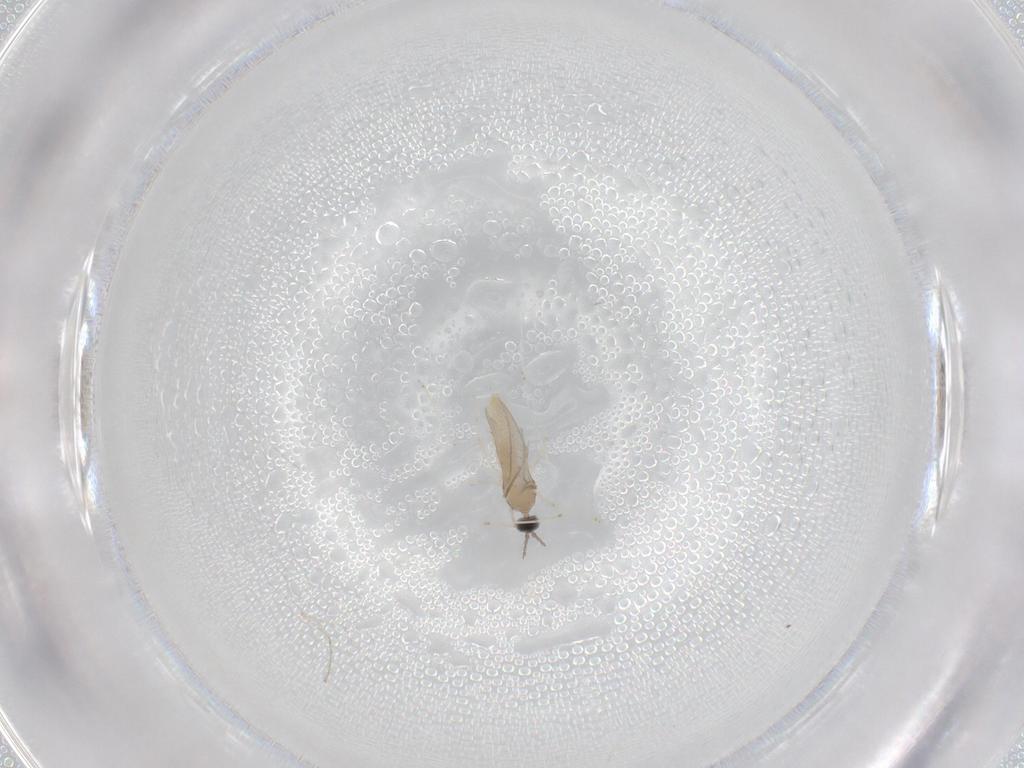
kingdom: Animalia
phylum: Arthropoda
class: Insecta
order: Diptera
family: Cecidomyiidae
